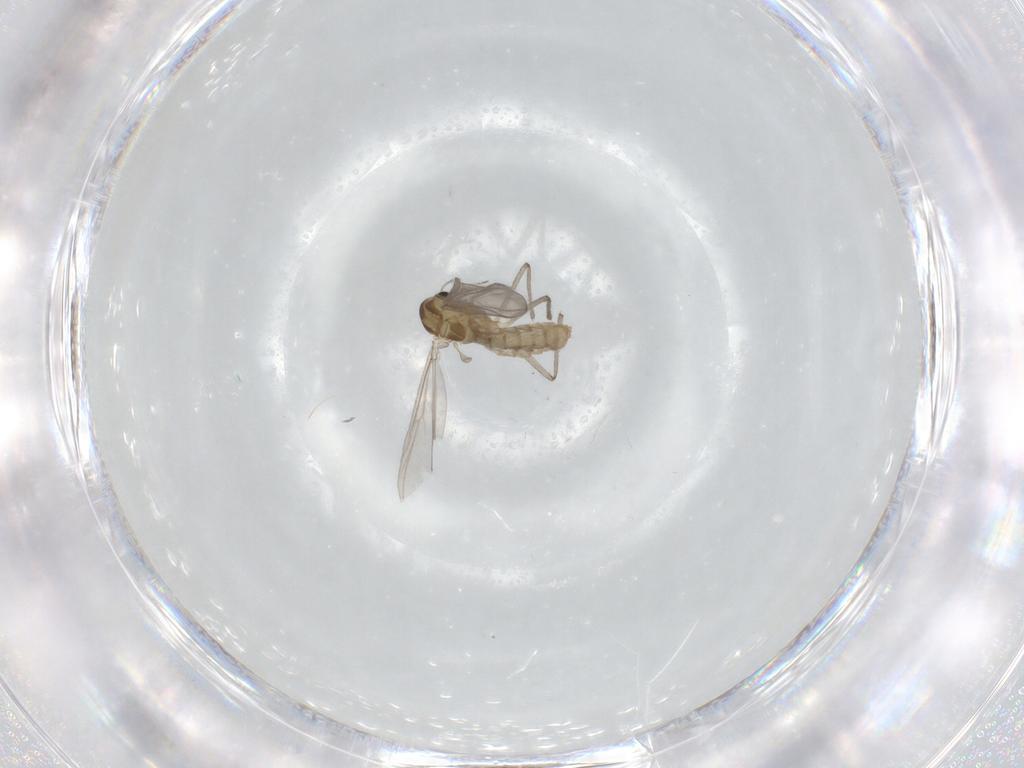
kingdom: Animalia
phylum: Arthropoda
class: Insecta
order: Diptera
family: Chironomidae
